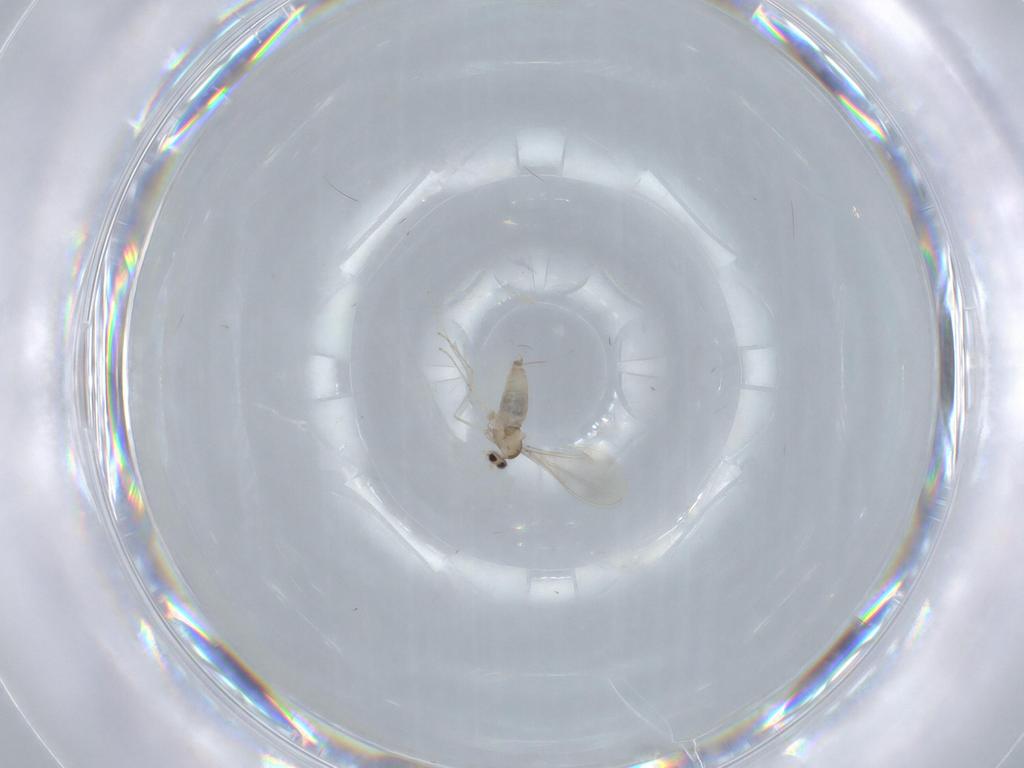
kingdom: Animalia
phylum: Arthropoda
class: Insecta
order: Diptera
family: Cecidomyiidae
